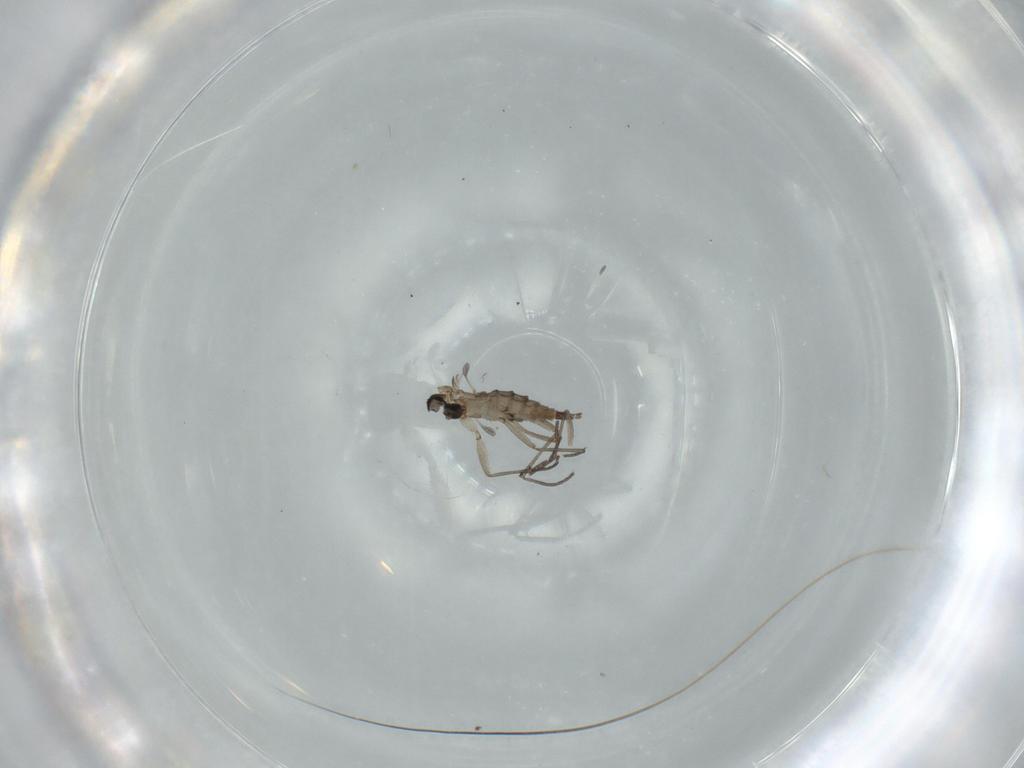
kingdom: Animalia
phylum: Arthropoda
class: Insecta
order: Diptera
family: Sciaridae
